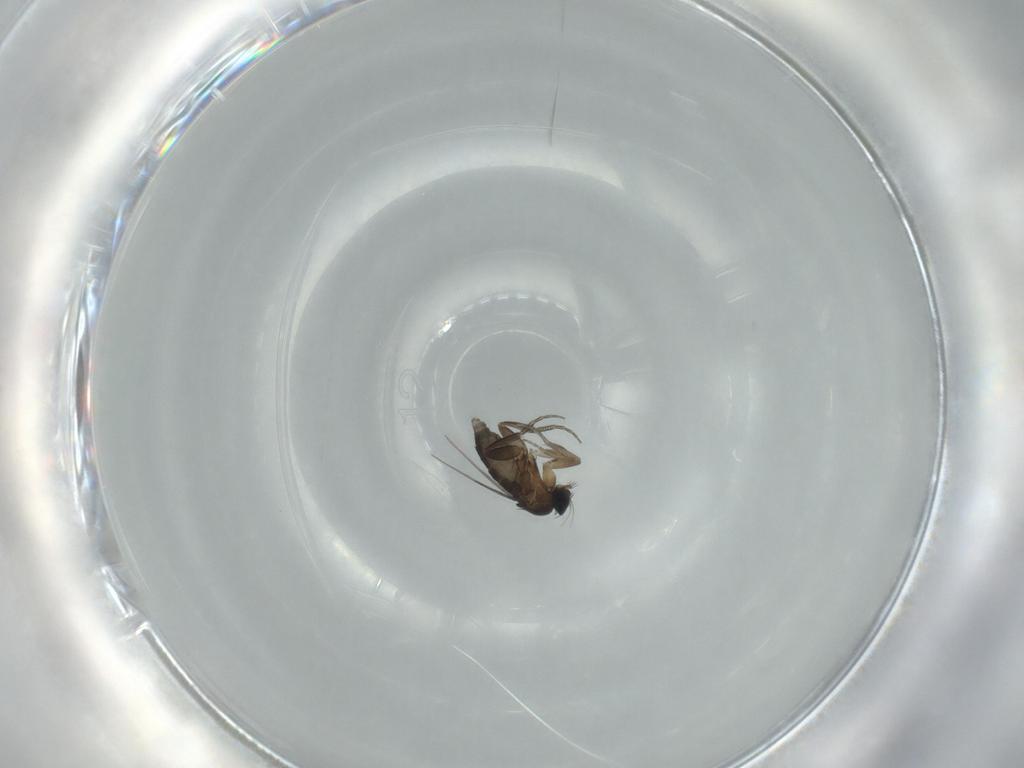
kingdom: Animalia
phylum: Arthropoda
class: Insecta
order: Diptera
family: Phoridae
